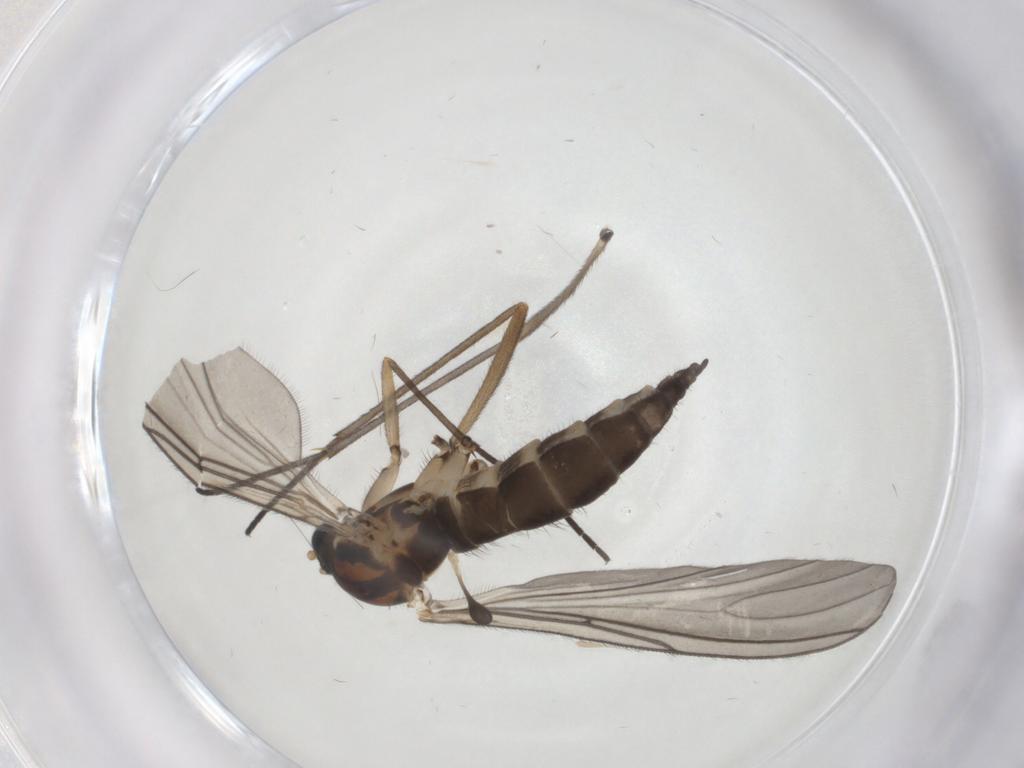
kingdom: Animalia
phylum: Arthropoda
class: Insecta
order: Diptera
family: Sciaridae
